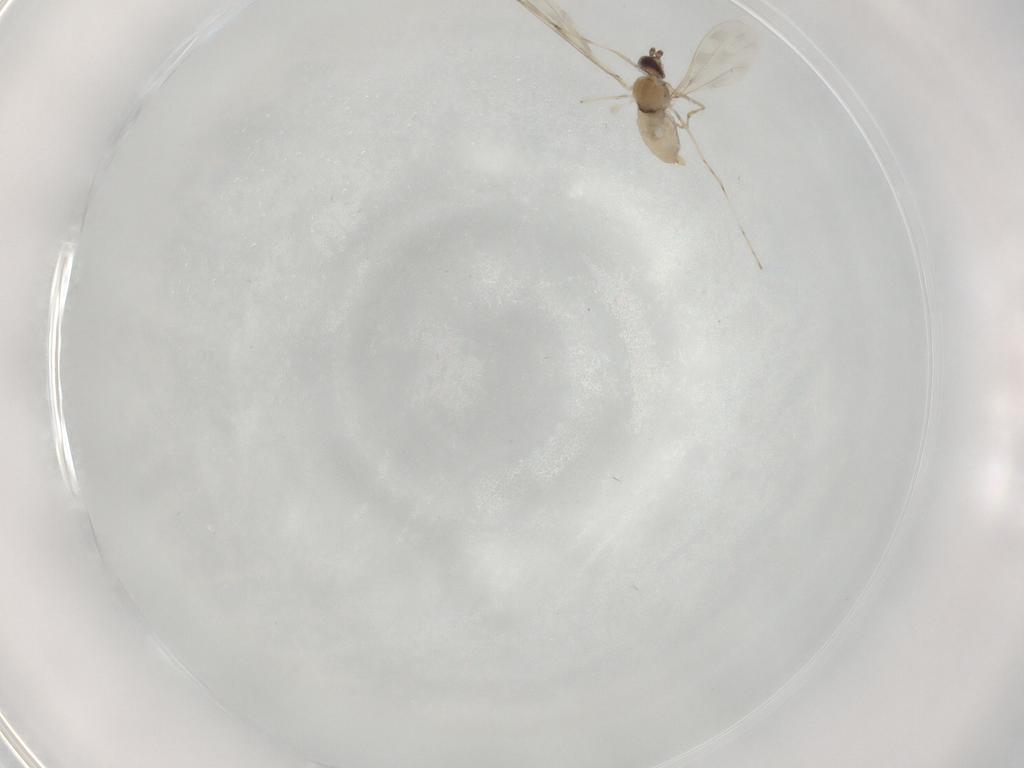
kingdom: Animalia
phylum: Arthropoda
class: Insecta
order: Diptera
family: Cecidomyiidae
